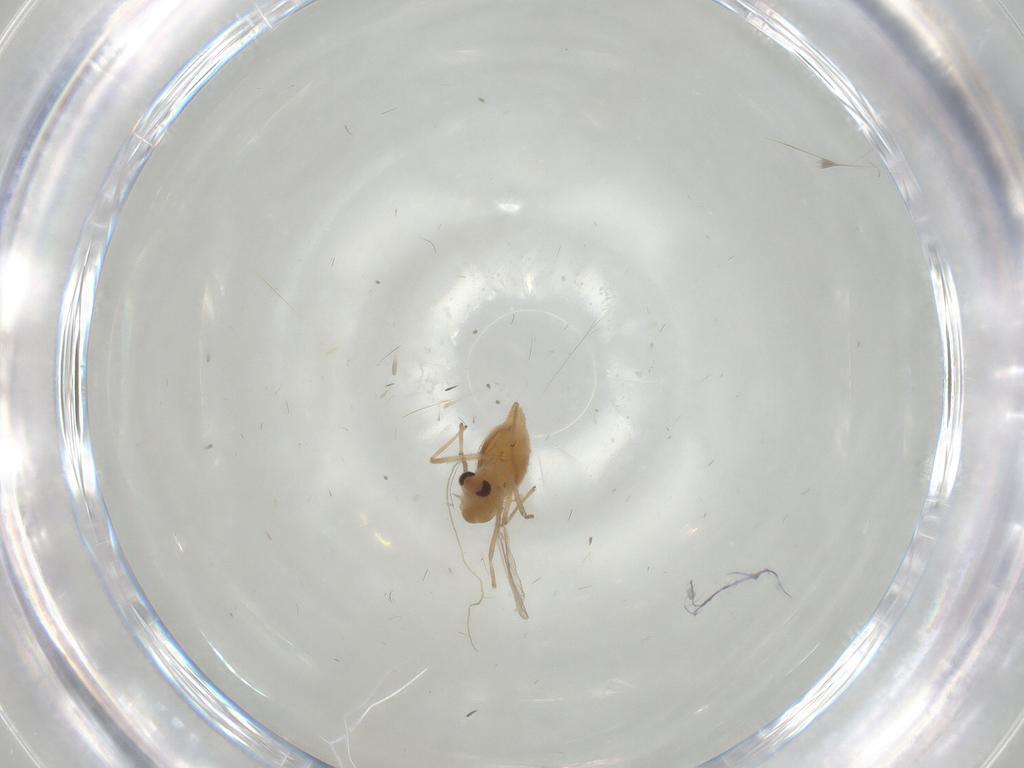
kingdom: Animalia
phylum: Arthropoda
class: Insecta
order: Diptera
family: Chironomidae
